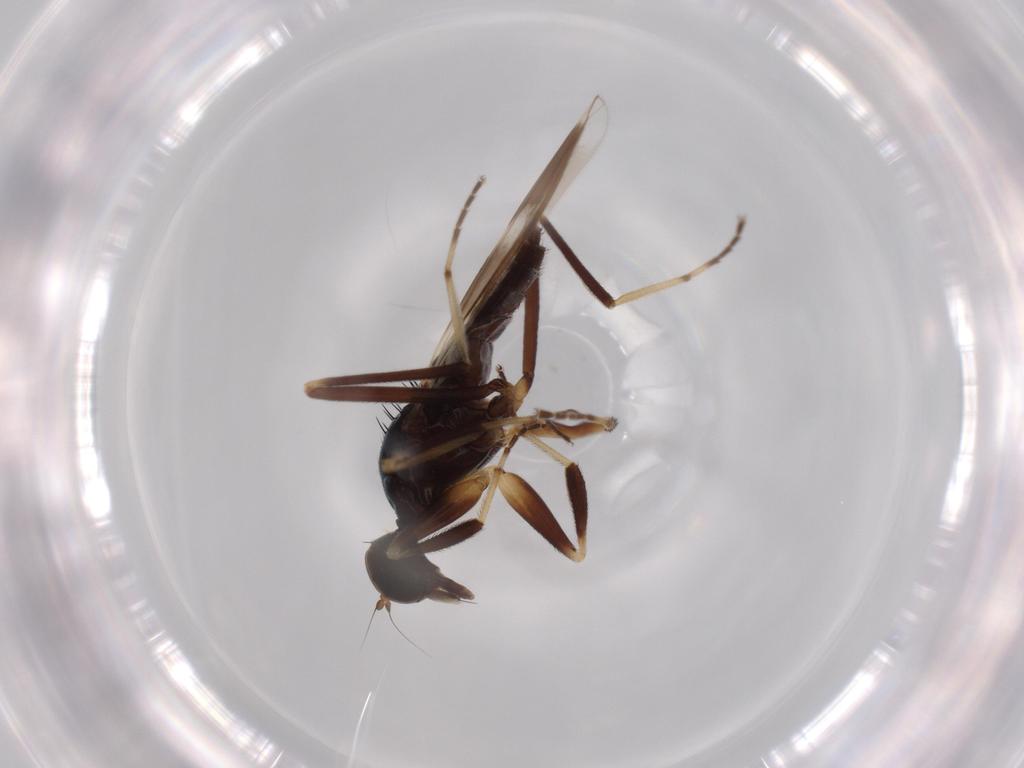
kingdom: Animalia
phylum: Arthropoda
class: Insecta
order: Diptera
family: Hybotidae
